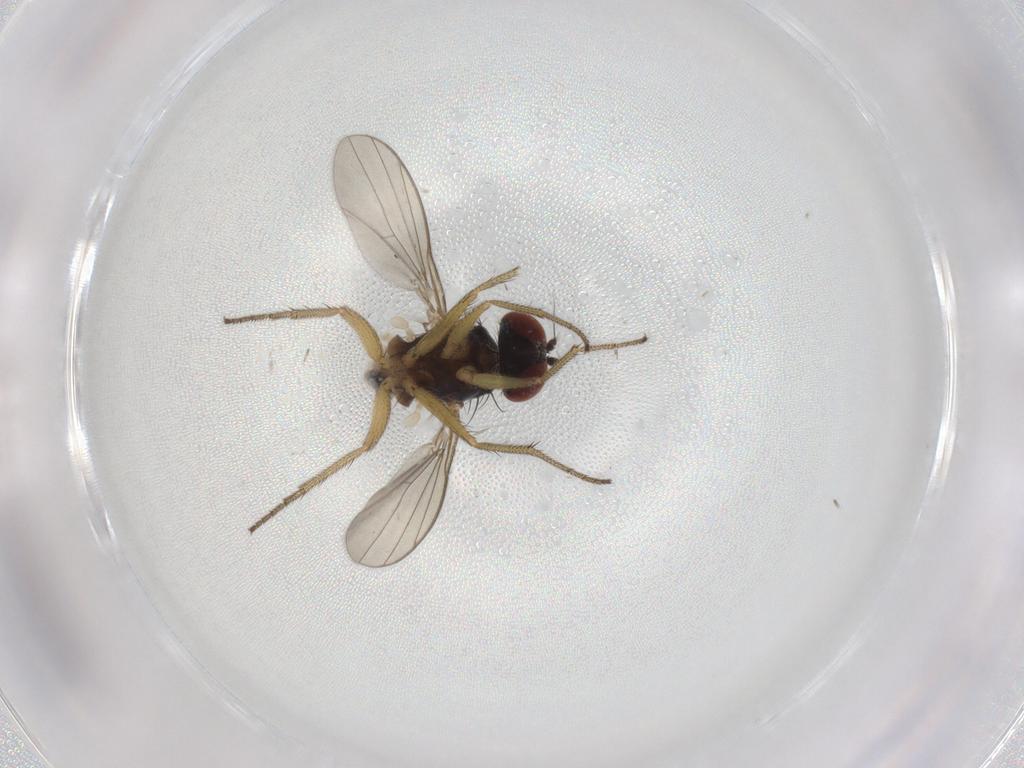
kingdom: Animalia
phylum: Arthropoda
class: Insecta
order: Diptera
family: Dolichopodidae
